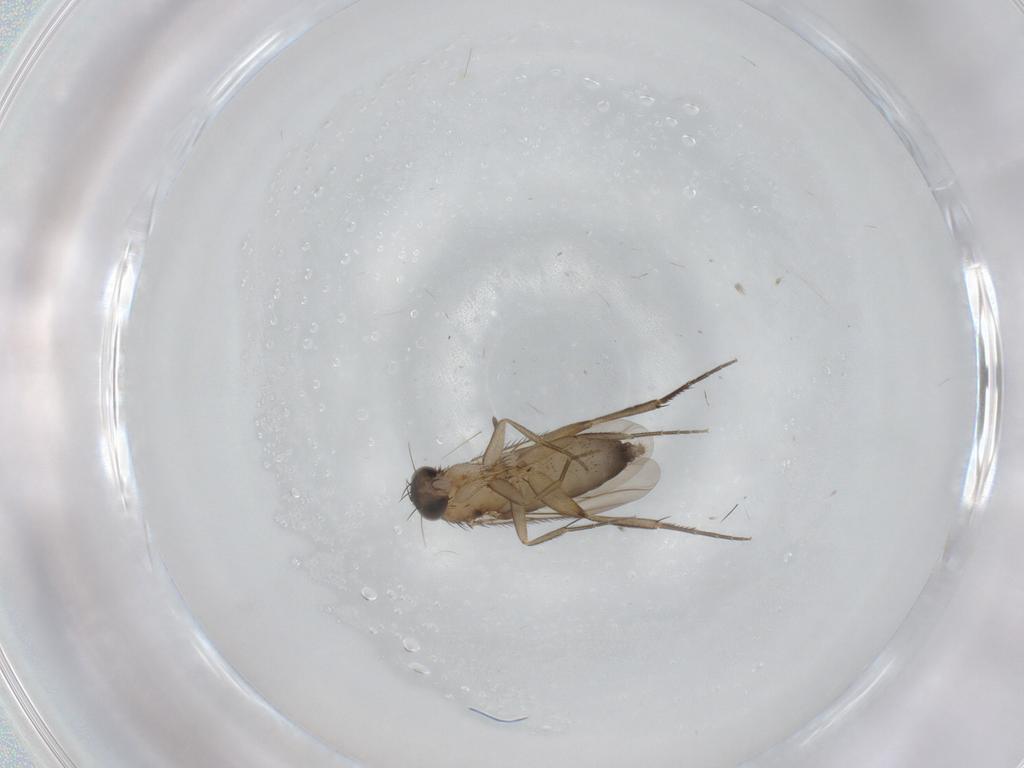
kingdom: Animalia
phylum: Arthropoda
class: Insecta
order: Diptera
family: Phoridae
